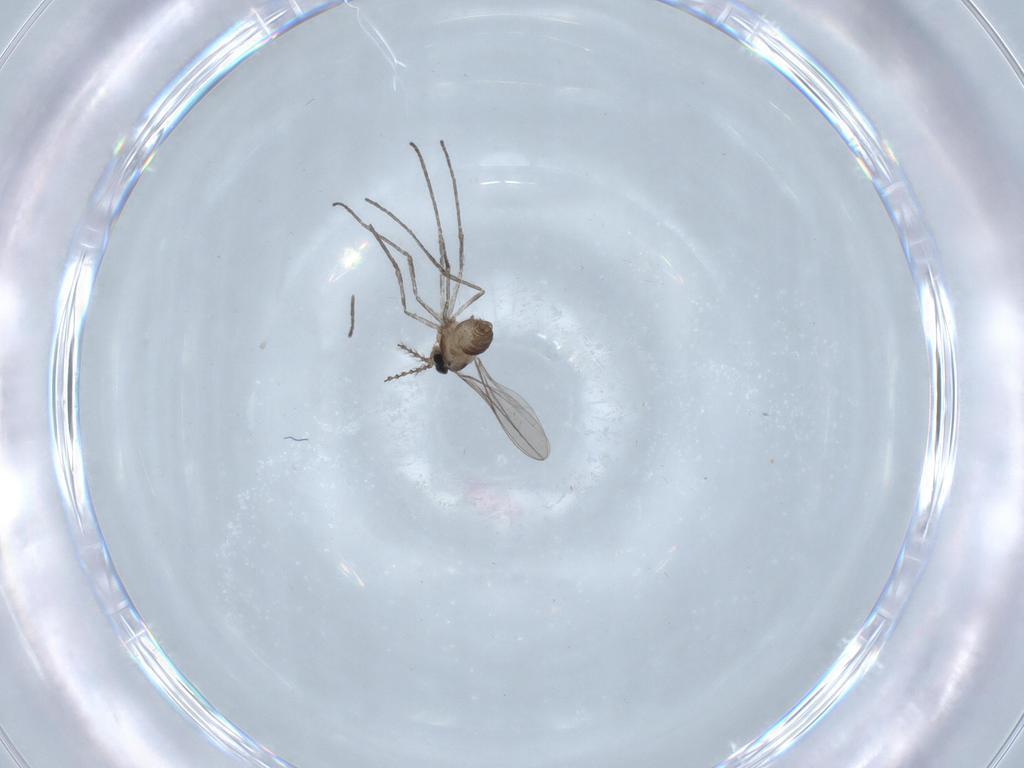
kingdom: Animalia
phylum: Arthropoda
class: Insecta
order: Diptera
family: Cecidomyiidae
